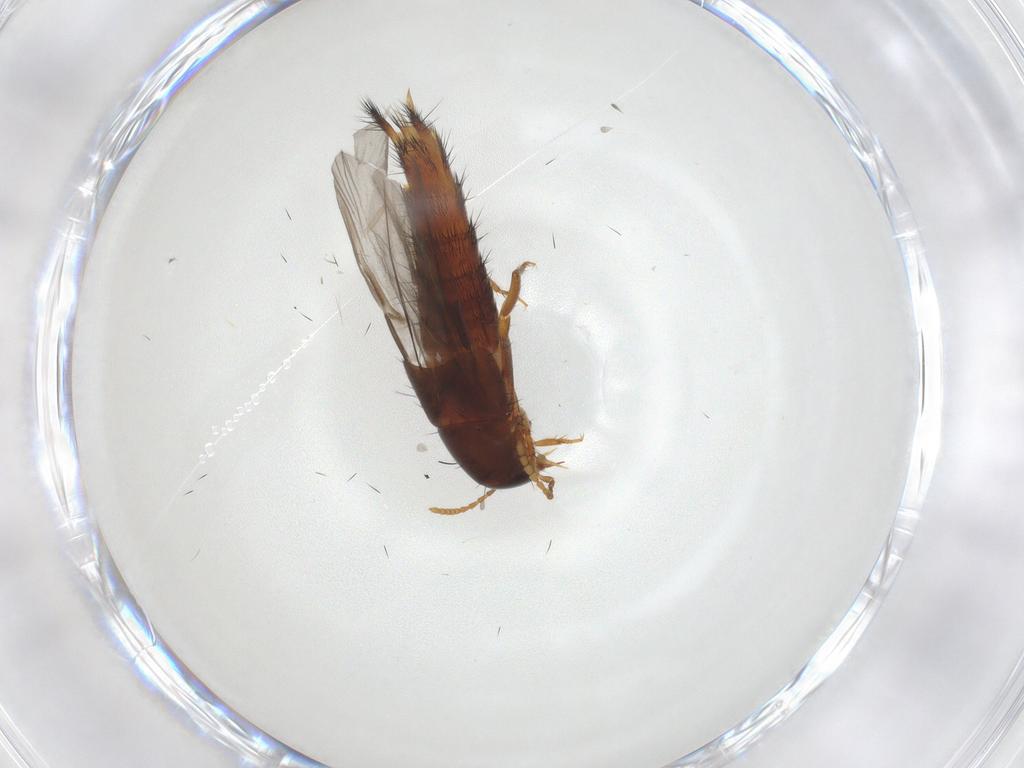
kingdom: Animalia
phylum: Arthropoda
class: Insecta
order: Coleoptera
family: Staphylinidae
